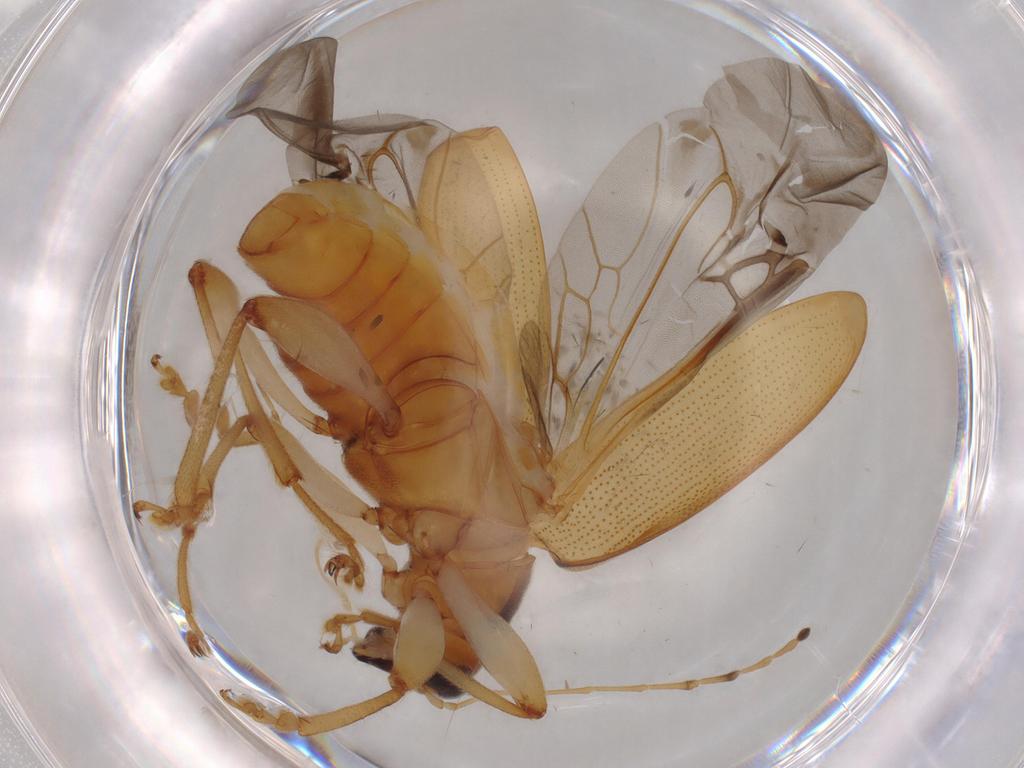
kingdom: Animalia
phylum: Arthropoda
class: Insecta
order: Coleoptera
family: Chrysomelidae
